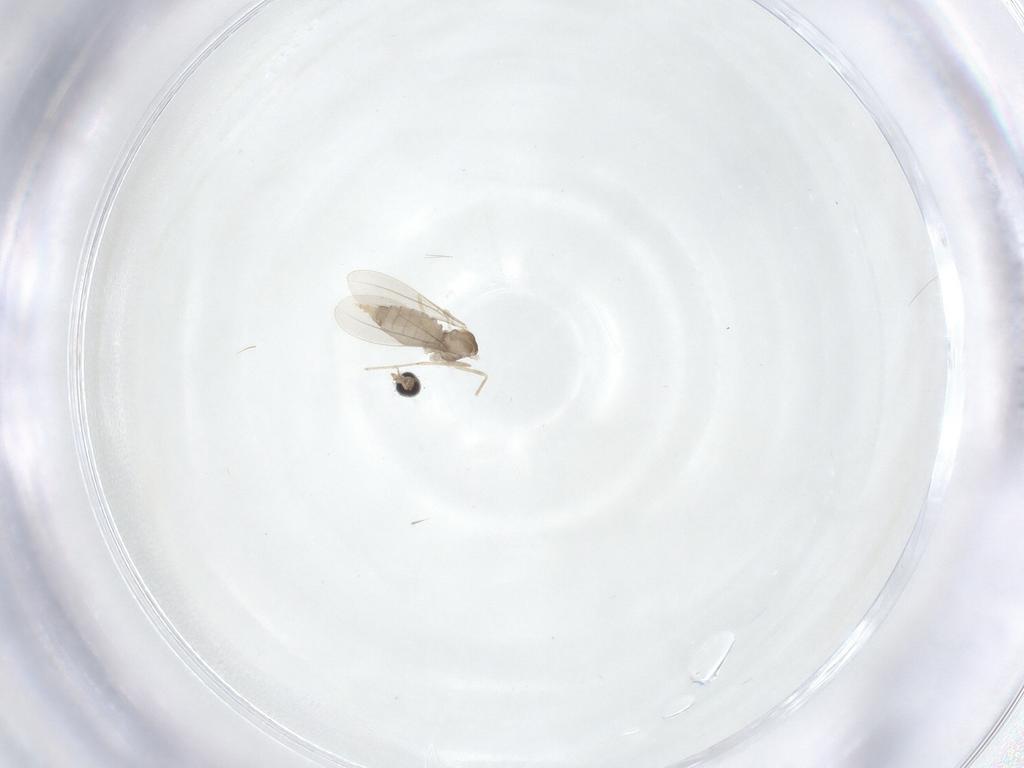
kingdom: Animalia
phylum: Arthropoda
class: Insecta
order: Diptera
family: Cecidomyiidae
